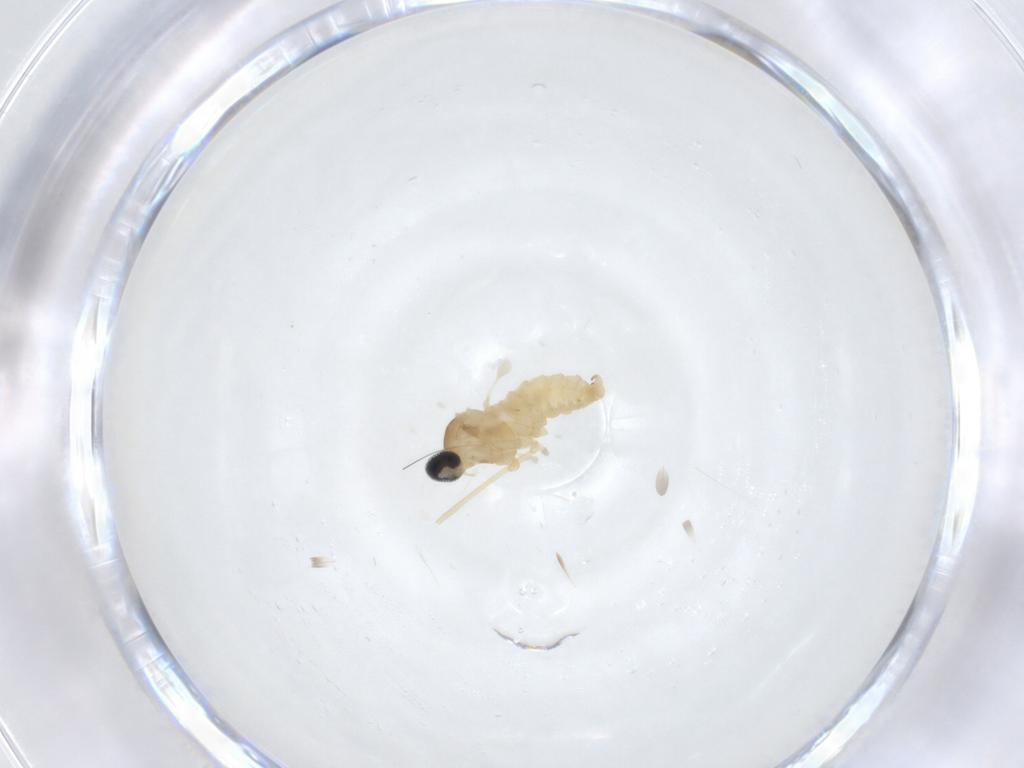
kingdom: Animalia
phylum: Arthropoda
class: Insecta
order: Diptera
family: Cecidomyiidae
